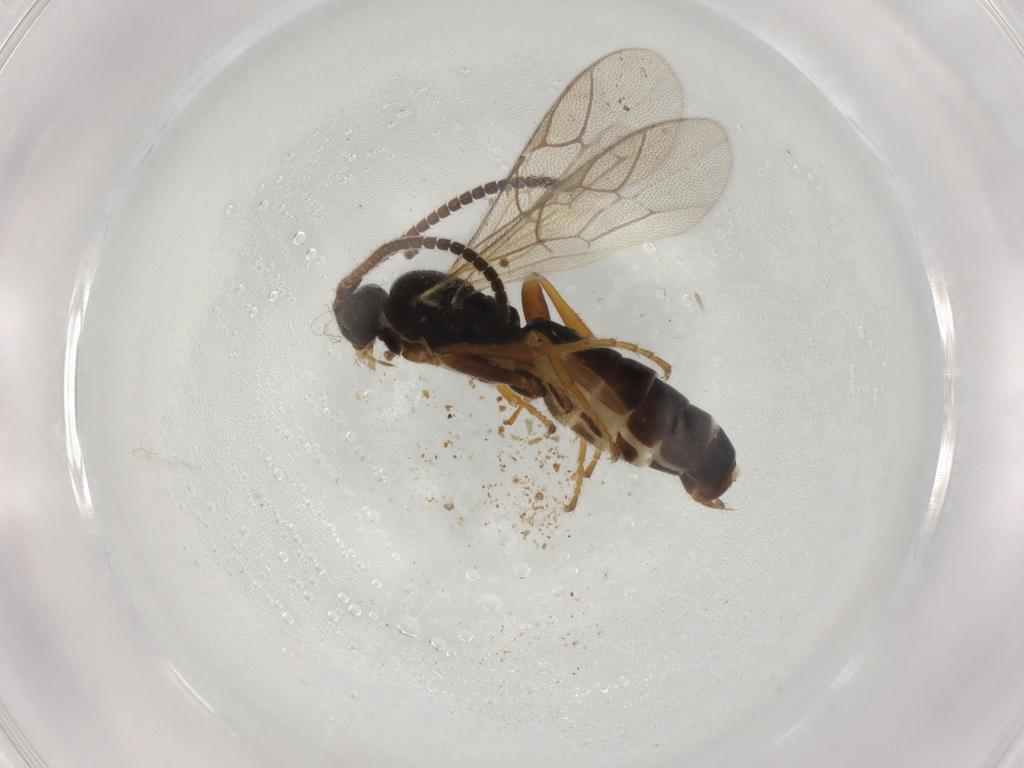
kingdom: Animalia
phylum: Arthropoda
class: Insecta
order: Hymenoptera
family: Ichneumonidae
